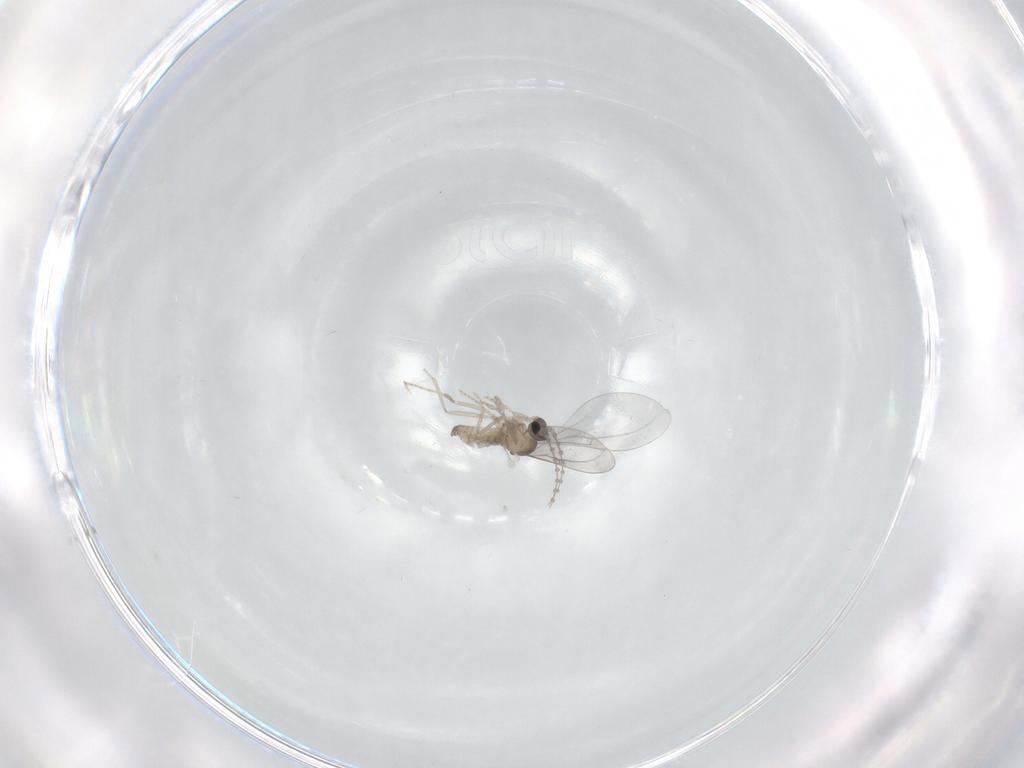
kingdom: Animalia
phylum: Arthropoda
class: Insecta
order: Diptera
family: Cecidomyiidae
